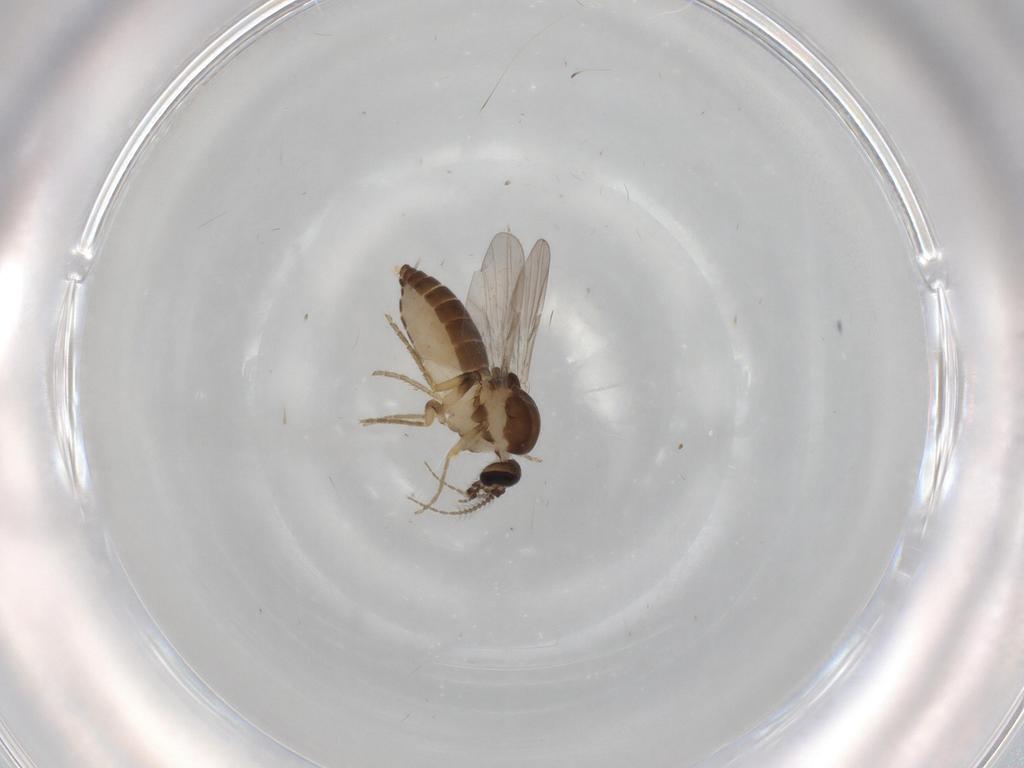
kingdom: Animalia
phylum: Arthropoda
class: Insecta
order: Diptera
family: Ceratopogonidae
